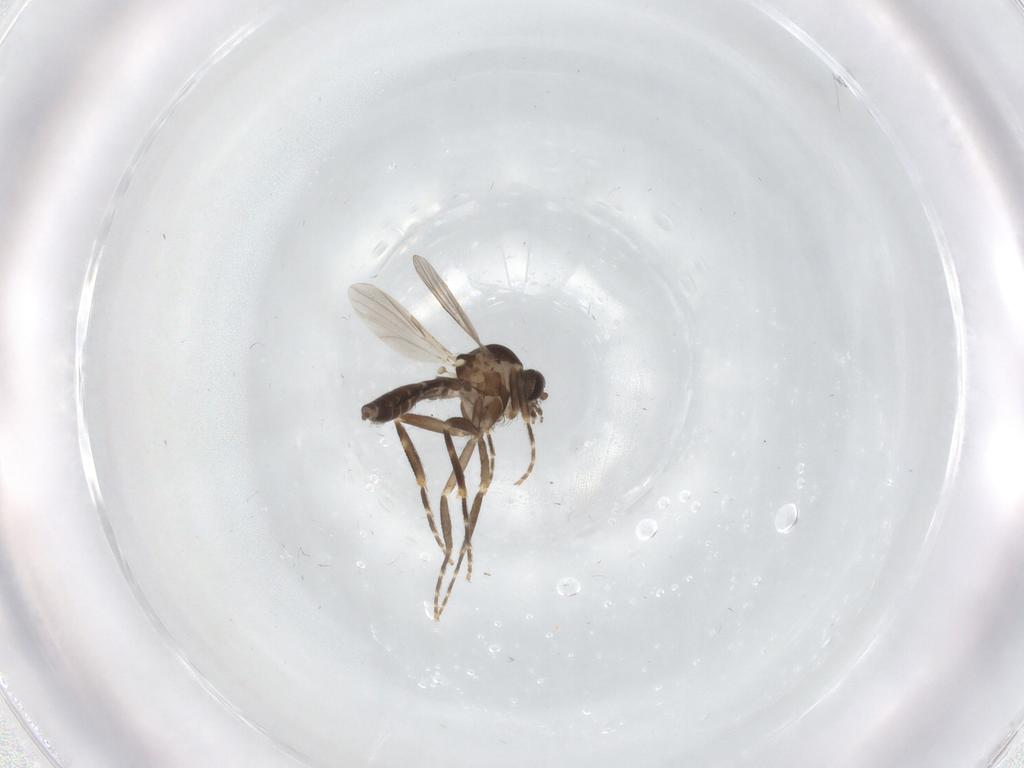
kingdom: Animalia
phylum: Arthropoda
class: Insecta
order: Diptera
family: Ceratopogonidae
